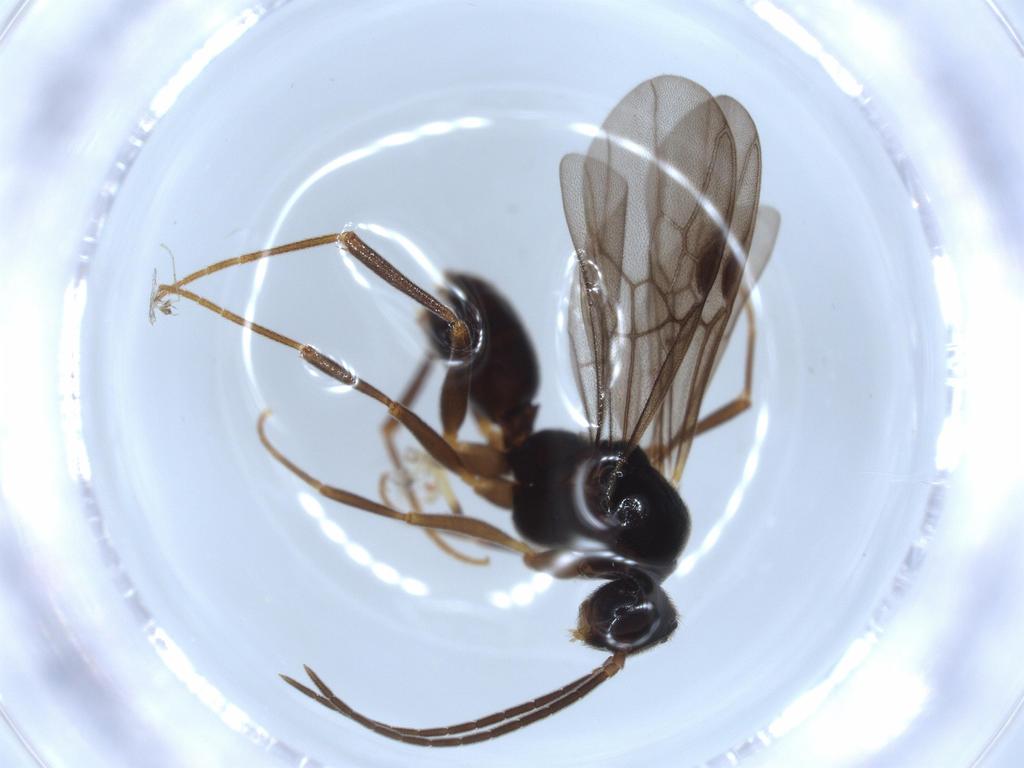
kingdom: Animalia
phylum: Arthropoda
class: Insecta
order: Hymenoptera
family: Formicidae
